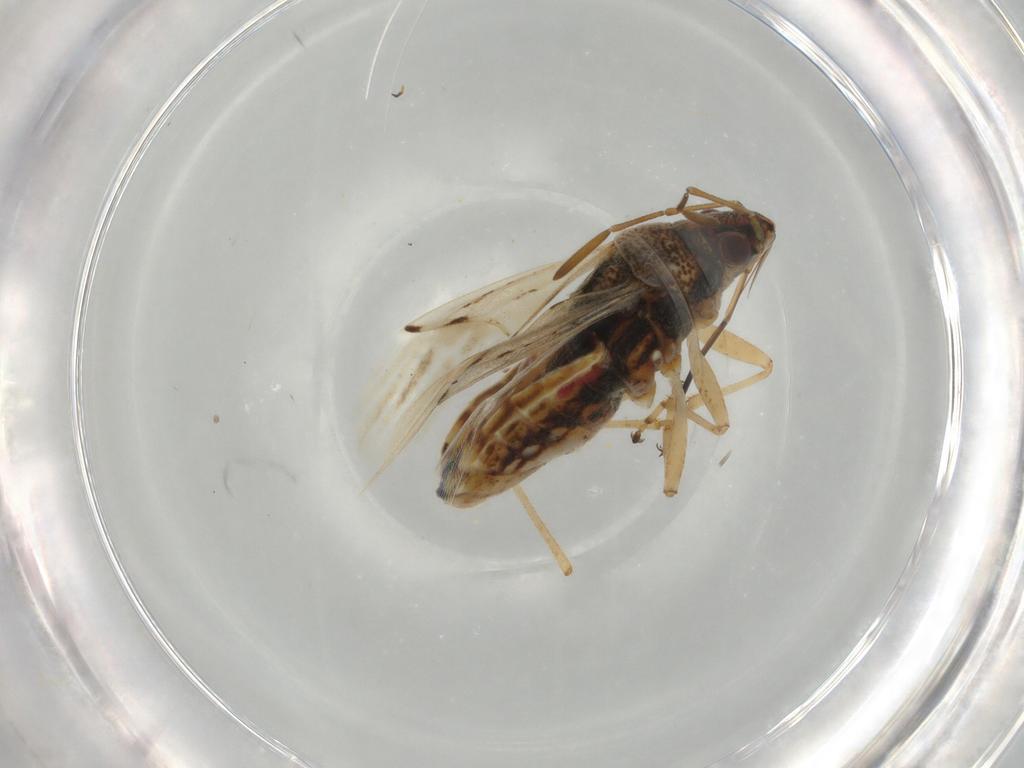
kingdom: Animalia
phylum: Arthropoda
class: Insecta
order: Hemiptera
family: Lygaeidae
